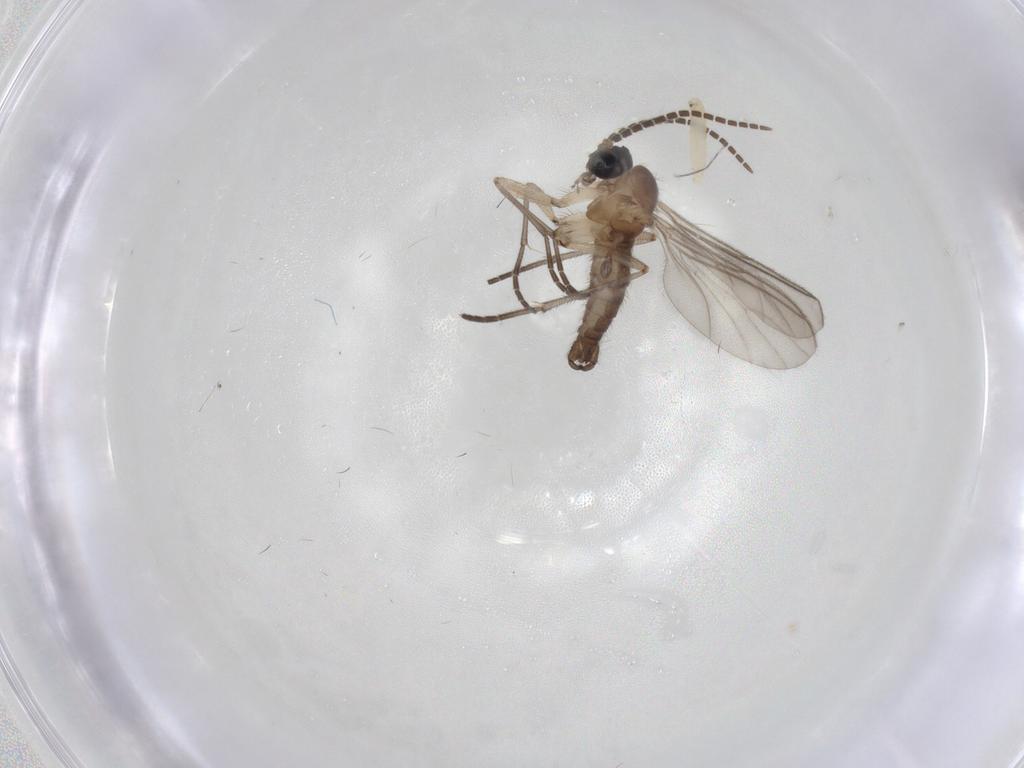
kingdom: Animalia
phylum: Arthropoda
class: Insecta
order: Diptera
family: Sciaridae
